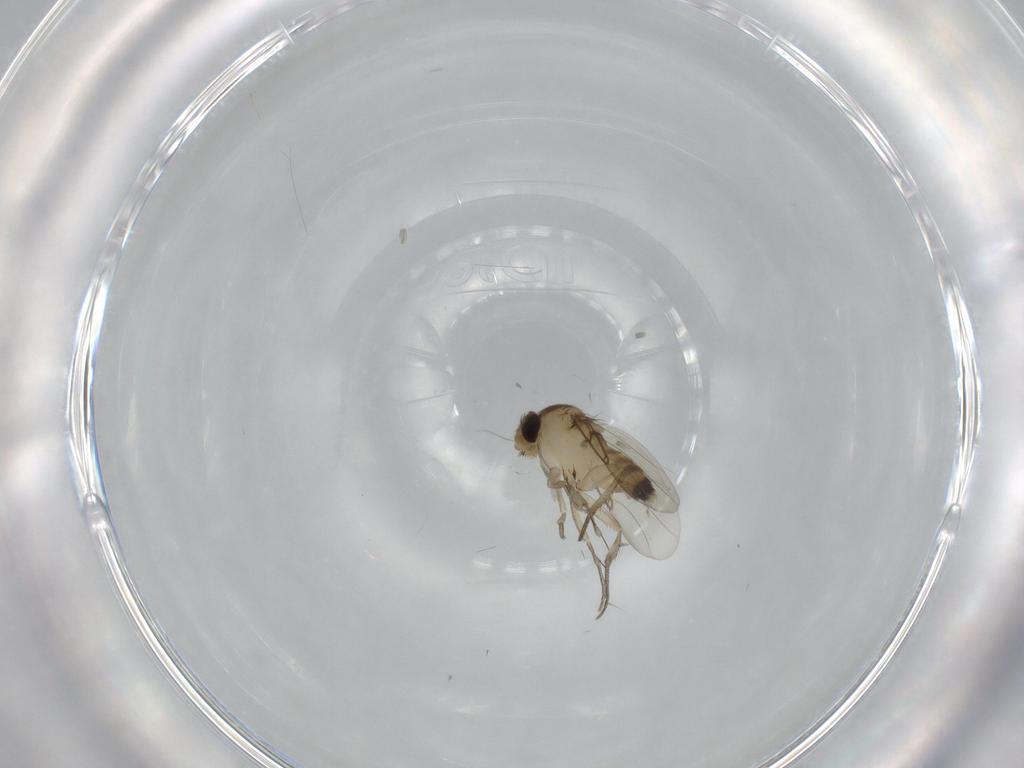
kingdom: Animalia
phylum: Arthropoda
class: Insecta
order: Diptera
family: Phoridae
